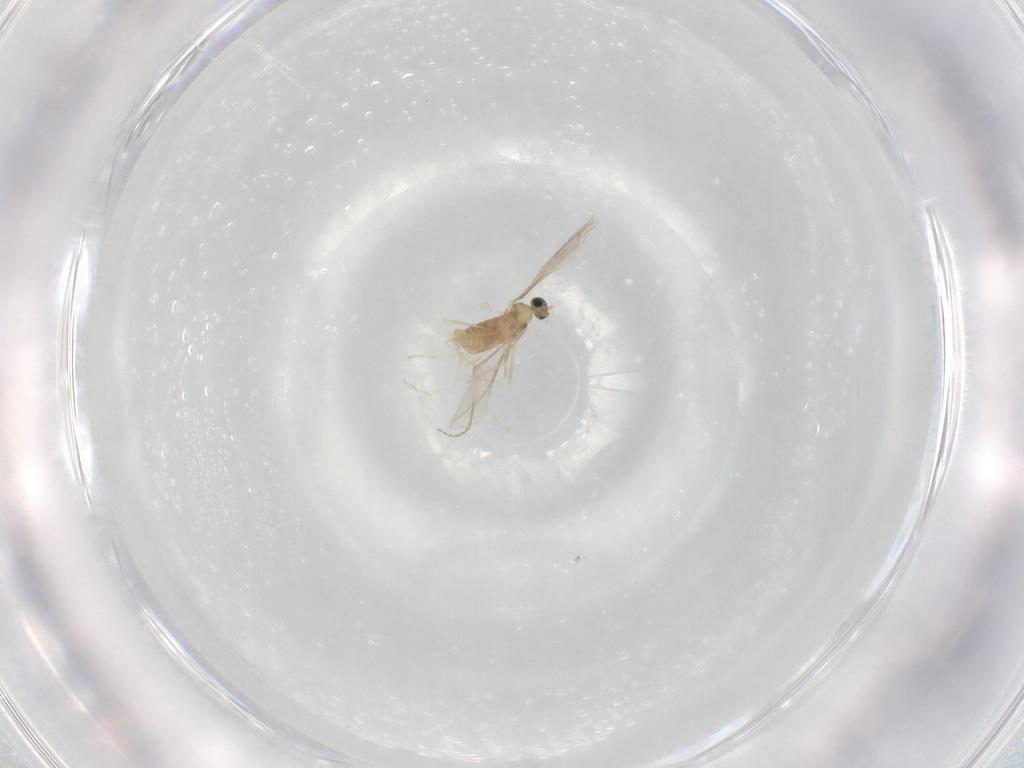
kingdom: Animalia
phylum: Arthropoda
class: Insecta
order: Diptera
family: Cecidomyiidae
